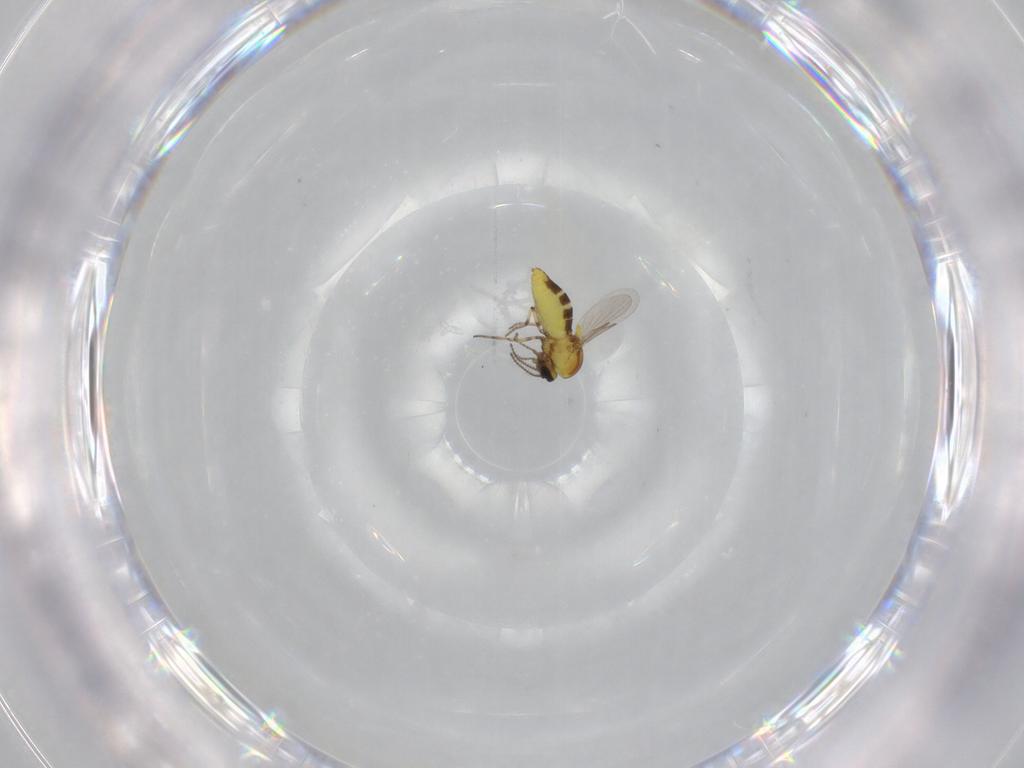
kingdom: Animalia
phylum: Arthropoda
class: Insecta
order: Diptera
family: Ceratopogonidae
